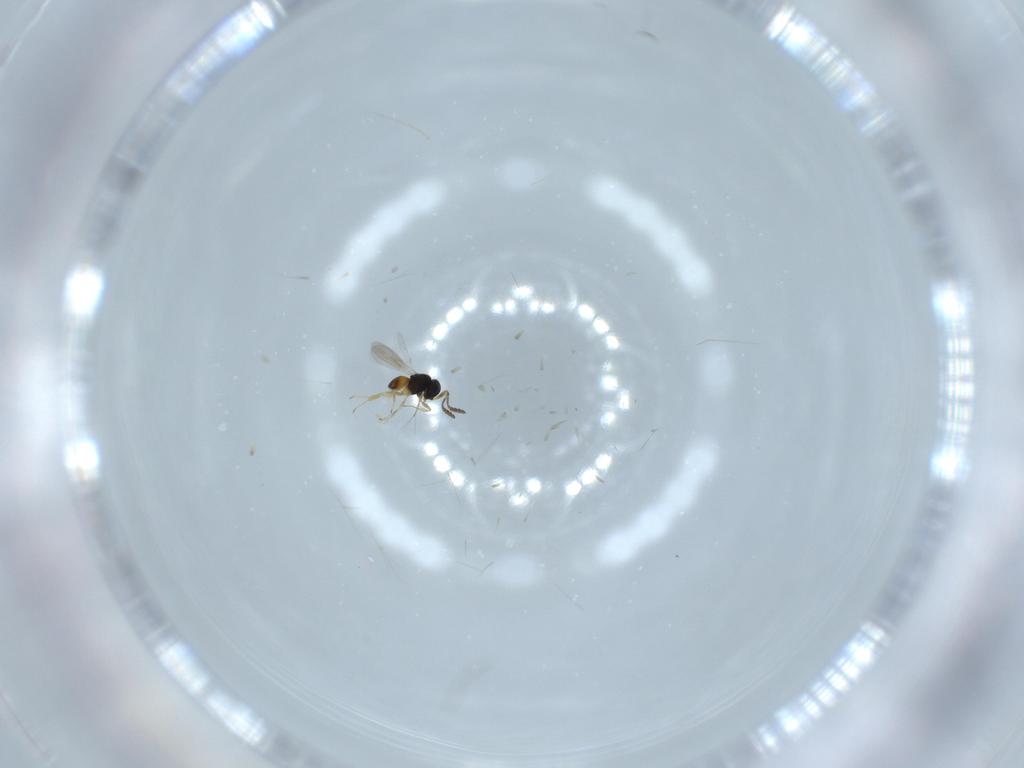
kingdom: Animalia
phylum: Arthropoda
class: Insecta
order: Hymenoptera
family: Scelionidae
